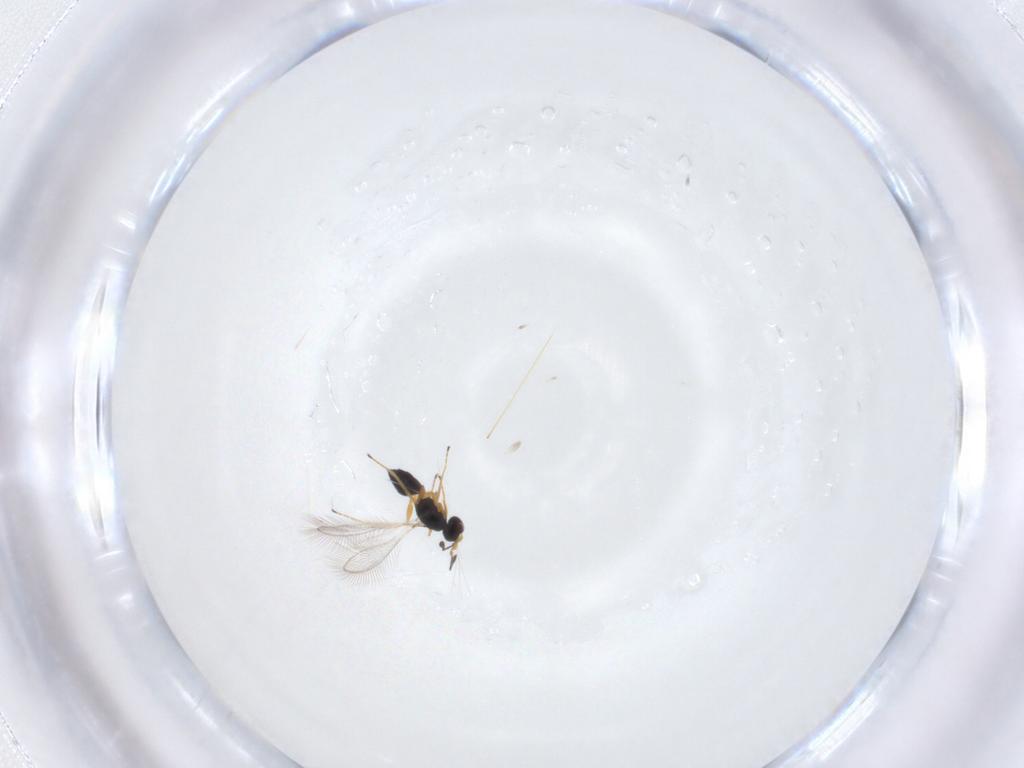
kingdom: Animalia
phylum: Arthropoda
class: Insecta
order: Hymenoptera
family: Mymaridae
